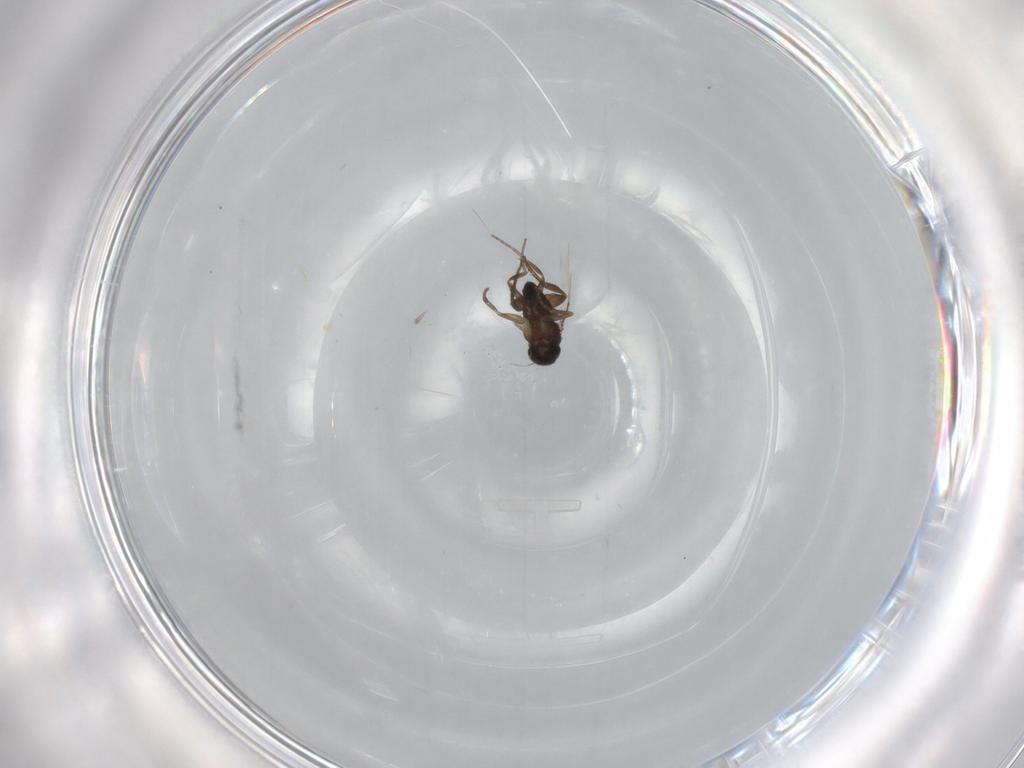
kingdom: Animalia
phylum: Arthropoda
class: Insecta
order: Diptera
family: Phoridae
